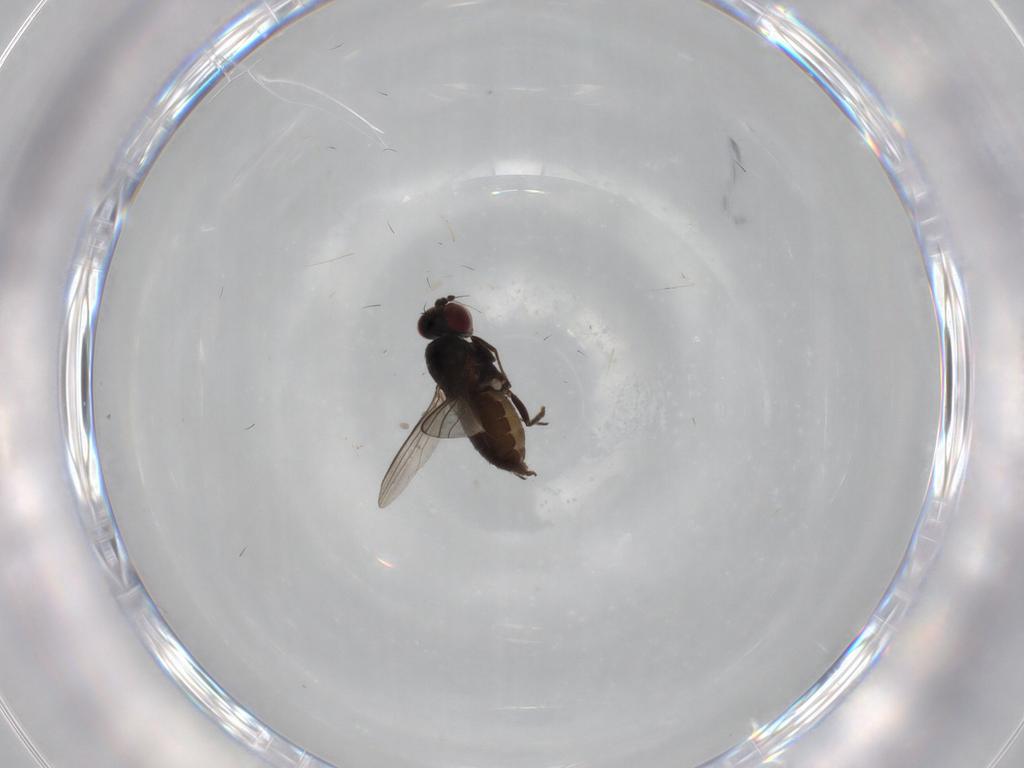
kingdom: Animalia
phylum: Arthropoda
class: Insecta
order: Diptera
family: Dolichopodidae
